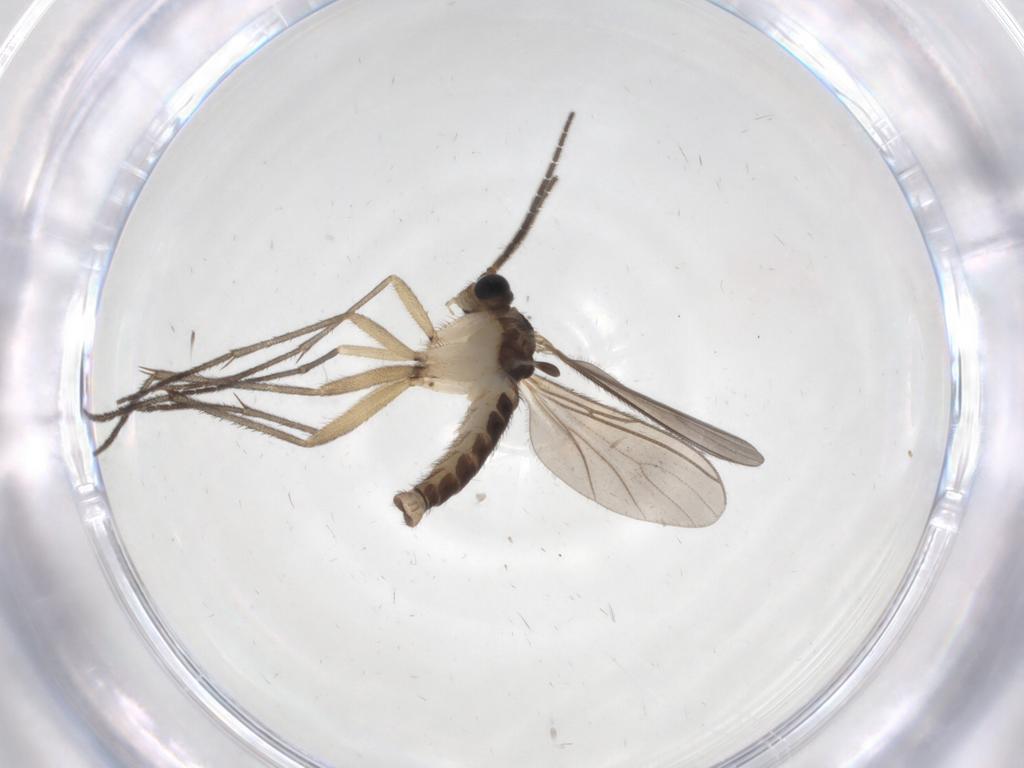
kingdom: Animalia
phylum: Arthropoda
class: Insecta
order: Diptera
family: Sciaridae
